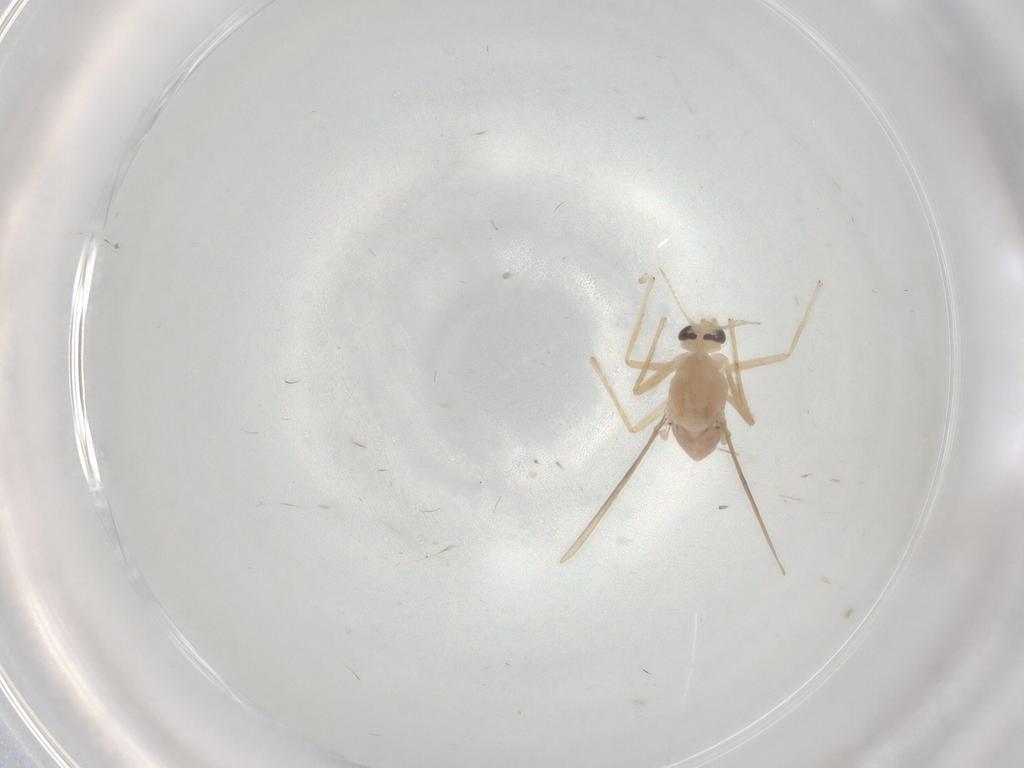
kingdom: Animalia
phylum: Arthropoda
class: Insecta
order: Diptera
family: Chironomidae
